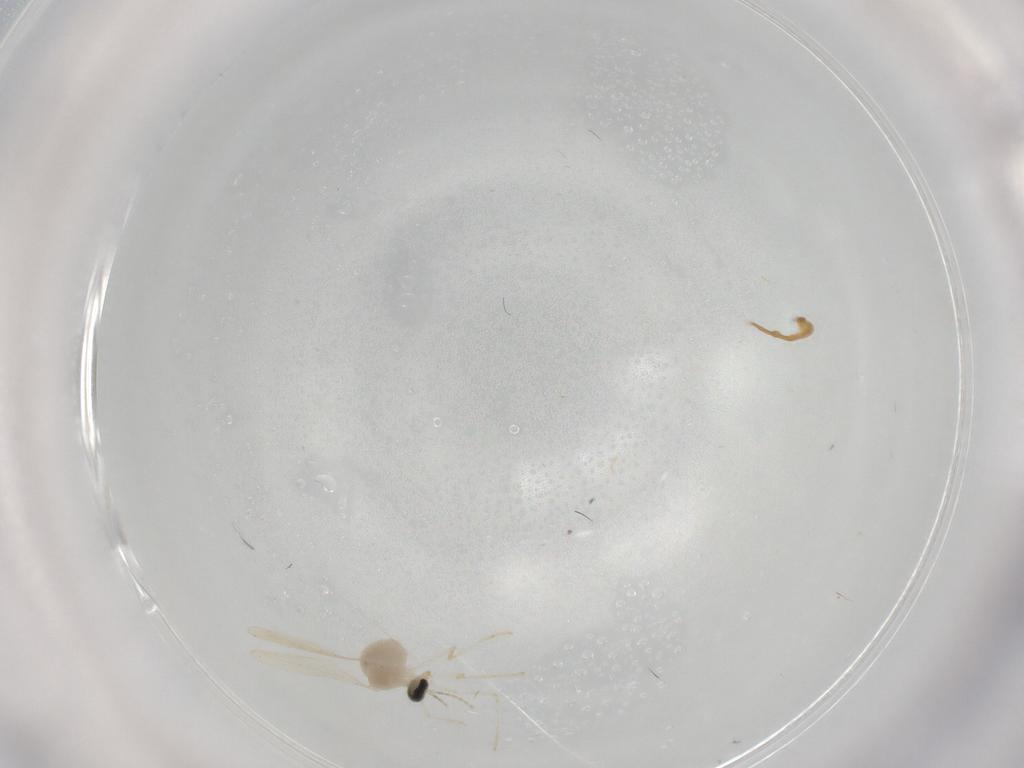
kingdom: Animalia
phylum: Arthropoda
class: Insecta
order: Diptera
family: Cecidomyiidae
